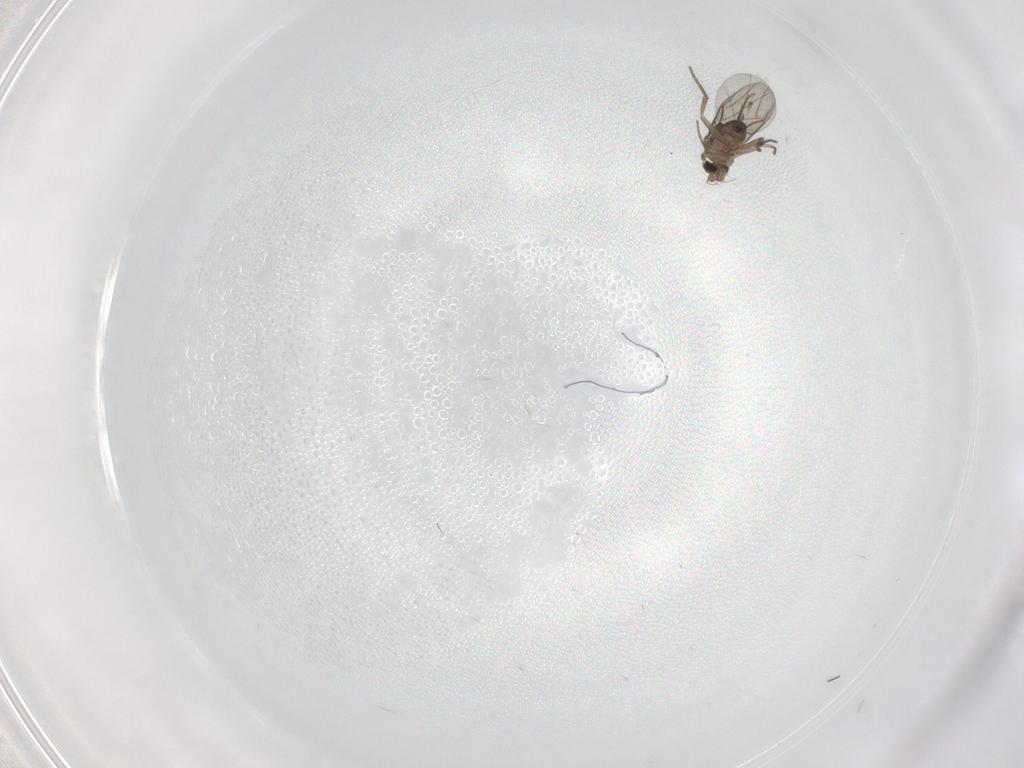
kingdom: Animalia
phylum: Arthropoda
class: Insecta
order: Diptera
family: Phoridae
